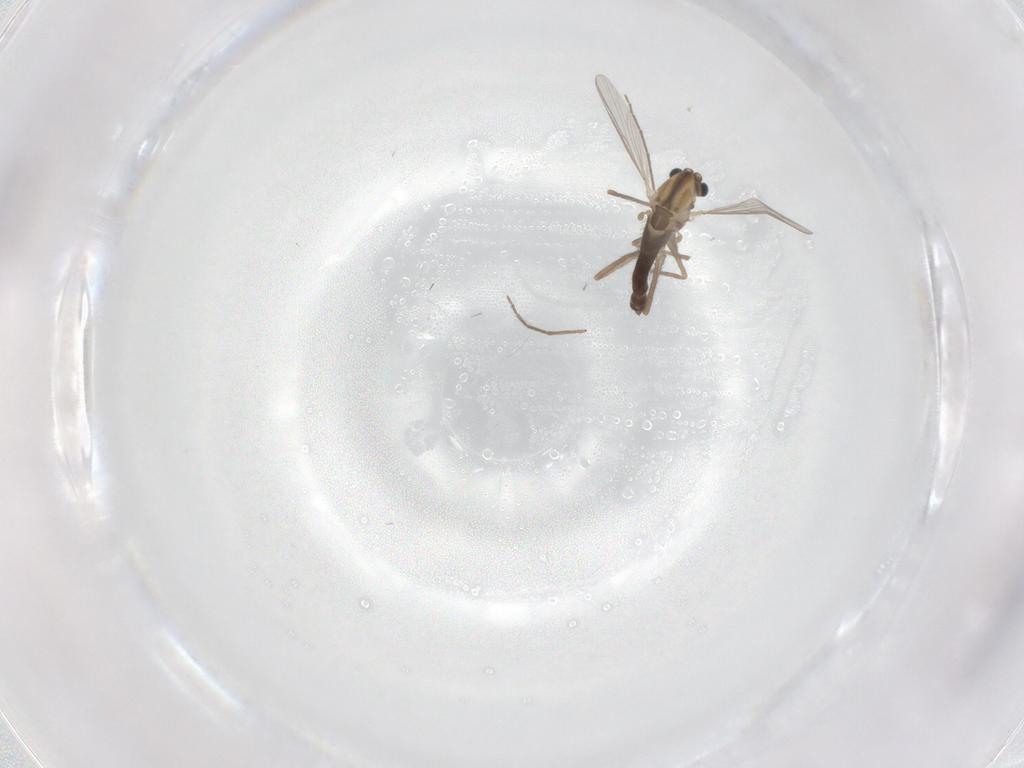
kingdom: Animalia
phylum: Arthropoda
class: Insecta
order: Diptera
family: Chironomidae
